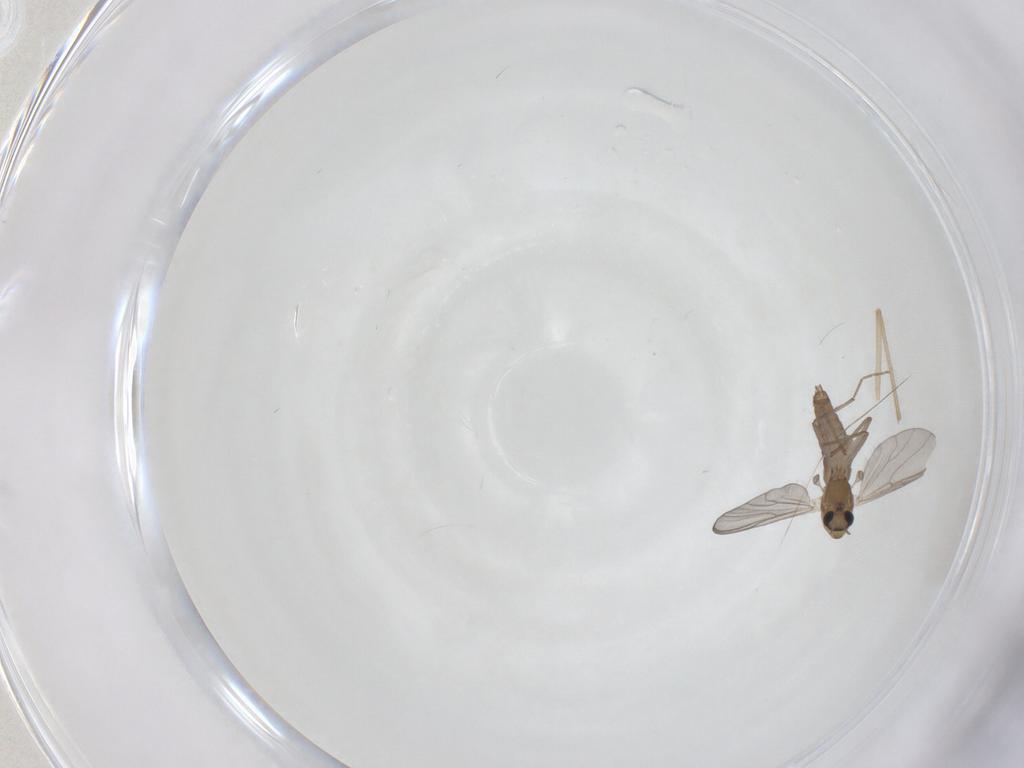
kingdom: Animalia
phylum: Arthropoda
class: Insecta
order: Diptera
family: Chironomidae
